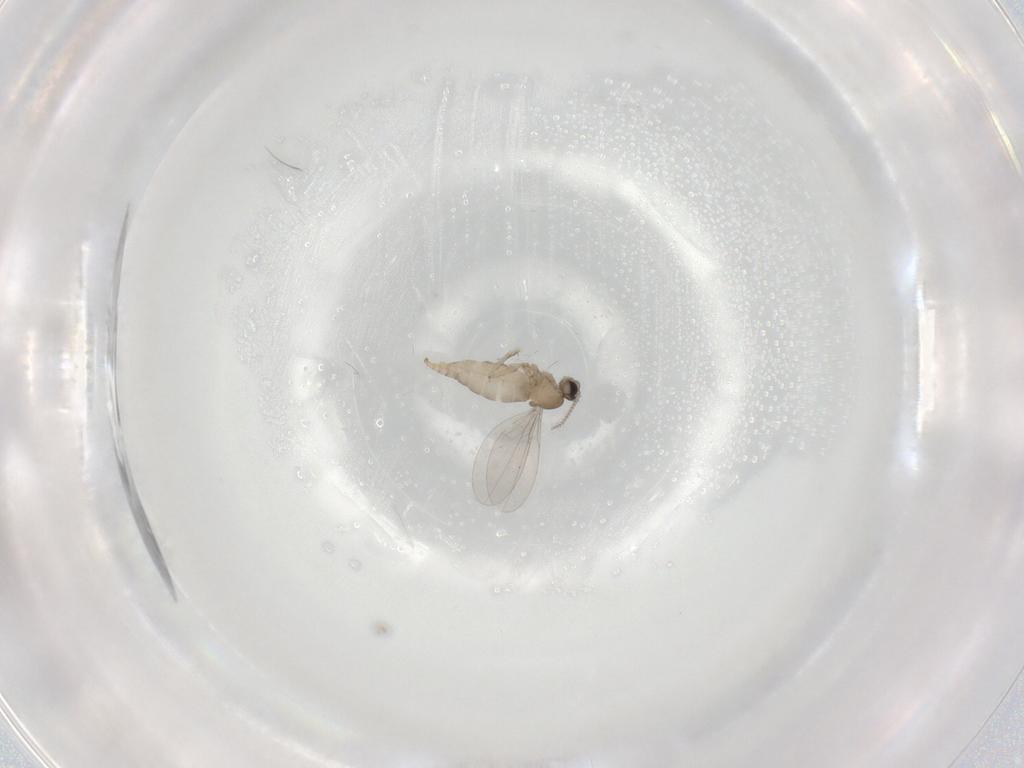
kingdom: Animalia
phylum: Arthropoda
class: Insecta
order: Diptera
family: Cecidomyiidae
